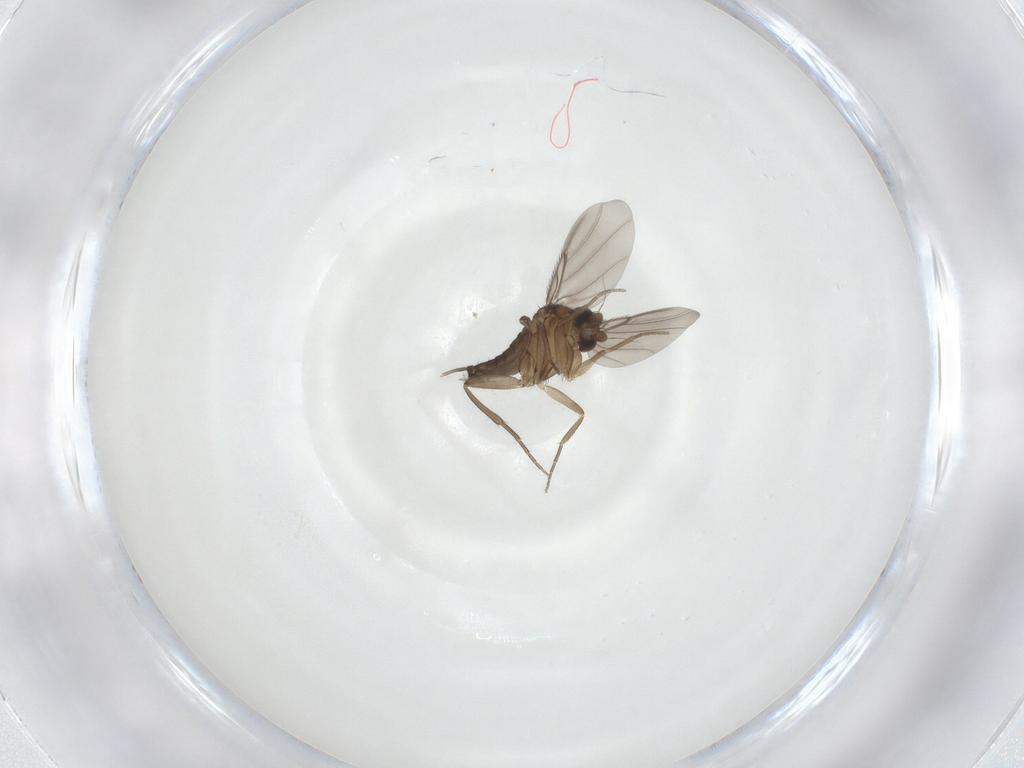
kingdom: Animalia
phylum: Arthropoda
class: Insecta
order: Diptera
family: Phoridae
